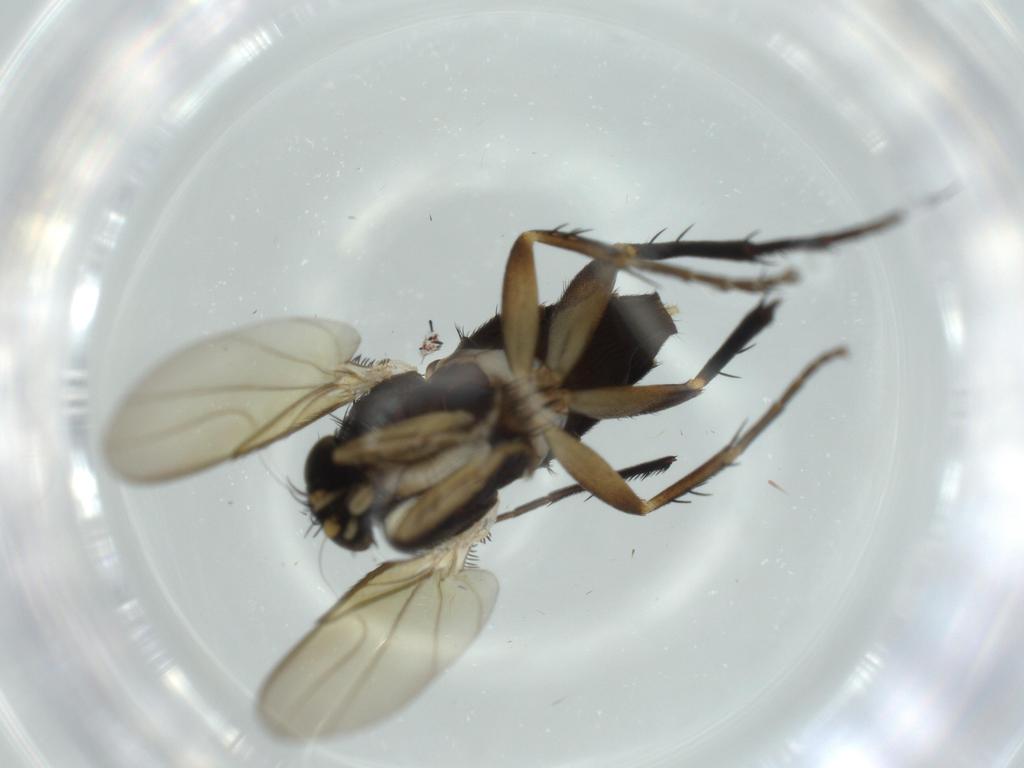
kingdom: Animalia
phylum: Arthropoda
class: Insecta
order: Diptera
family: Phoridae
